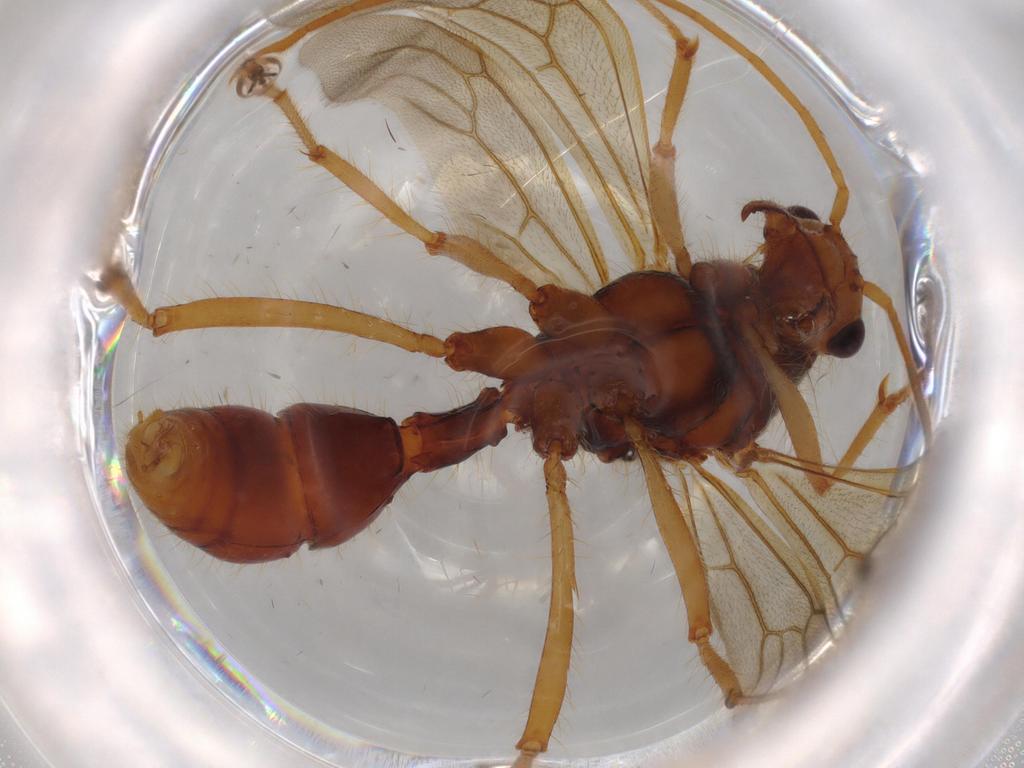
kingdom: Animalia
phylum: Arthropoda
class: Insecta
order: Hymenoptera
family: Formicidae
